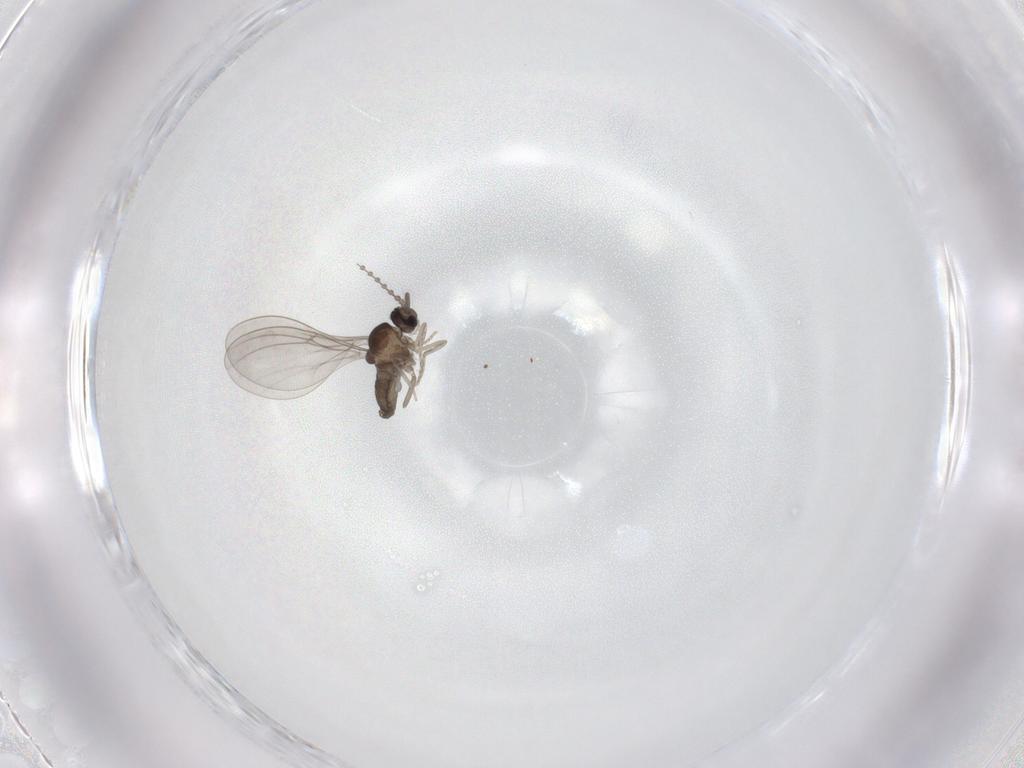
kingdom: Animalia
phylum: Arthropoda
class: Insecta
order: Diptera
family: Cecidomyiidae
